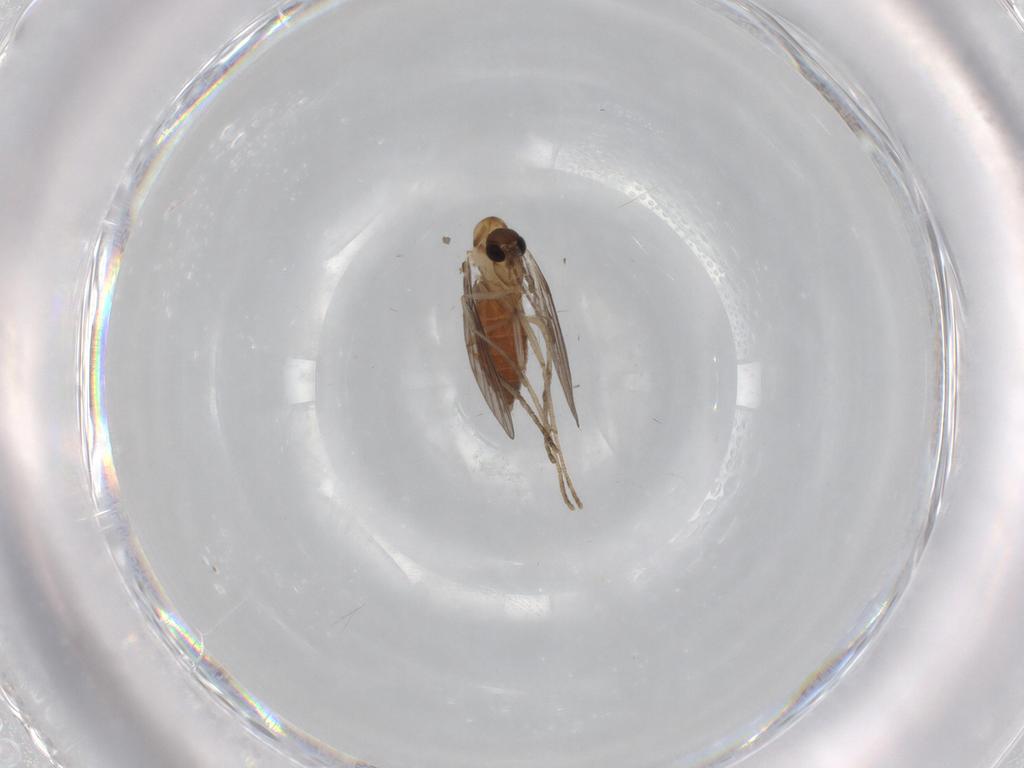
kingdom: Animalia
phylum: Arthropoda
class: Insecta
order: Diptera
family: Limoniidae
